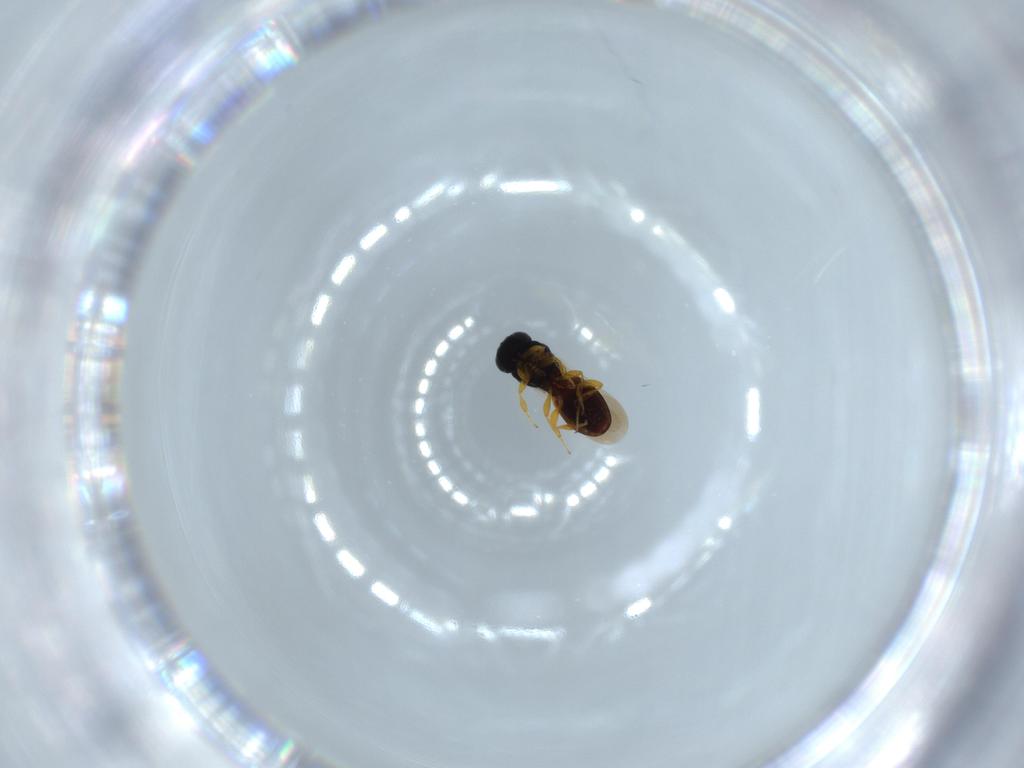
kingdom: Animalia
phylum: Arthropoda
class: Insecta
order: Hymenoptera
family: Platygastridae
